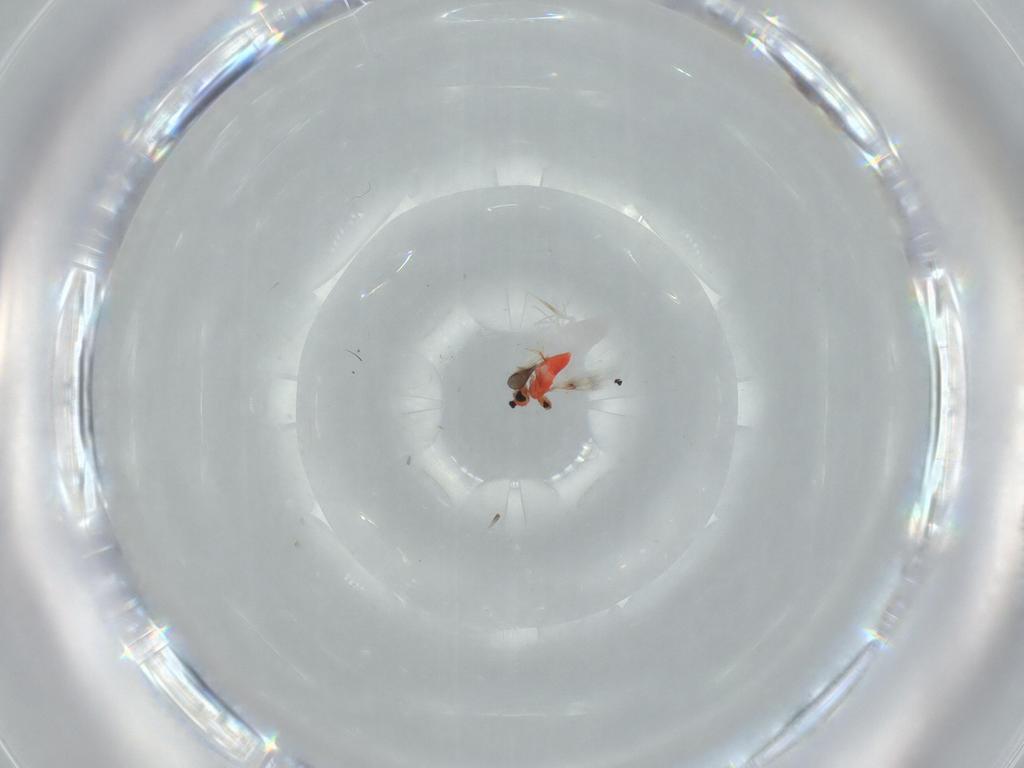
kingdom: Animalia
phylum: Arthropoda
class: Insecta
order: Hymenoptera
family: Trichogrammatidae
